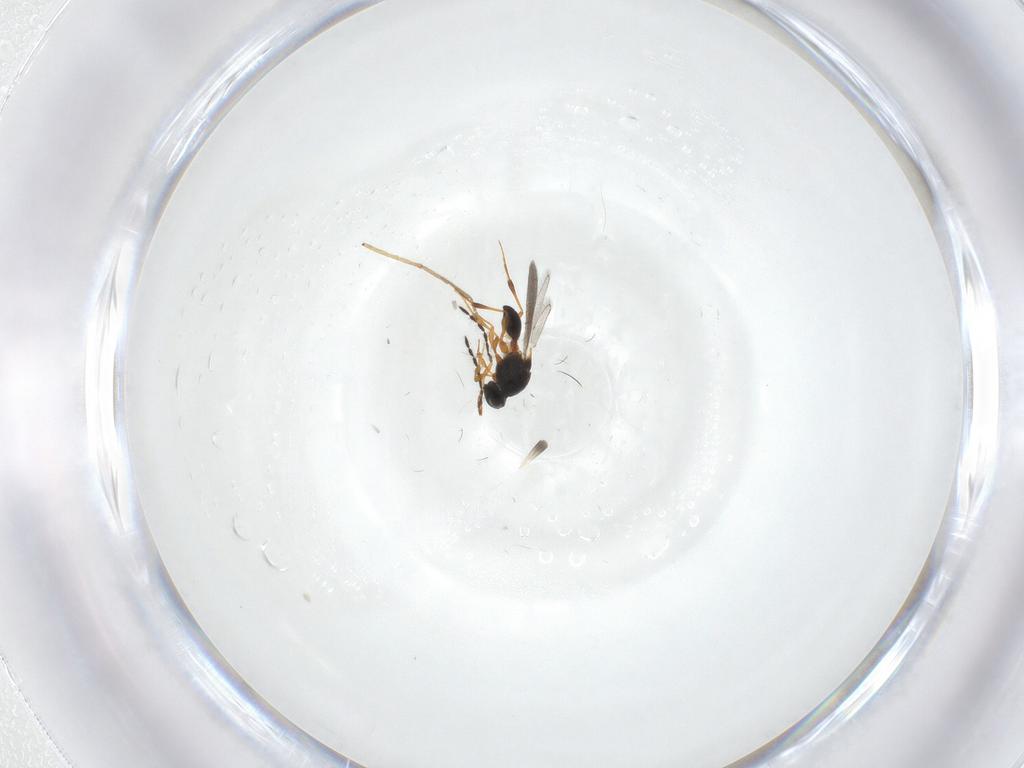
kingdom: Animalia
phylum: Arthropoda
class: Insecta
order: Hymenoptera
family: Platygastridae
